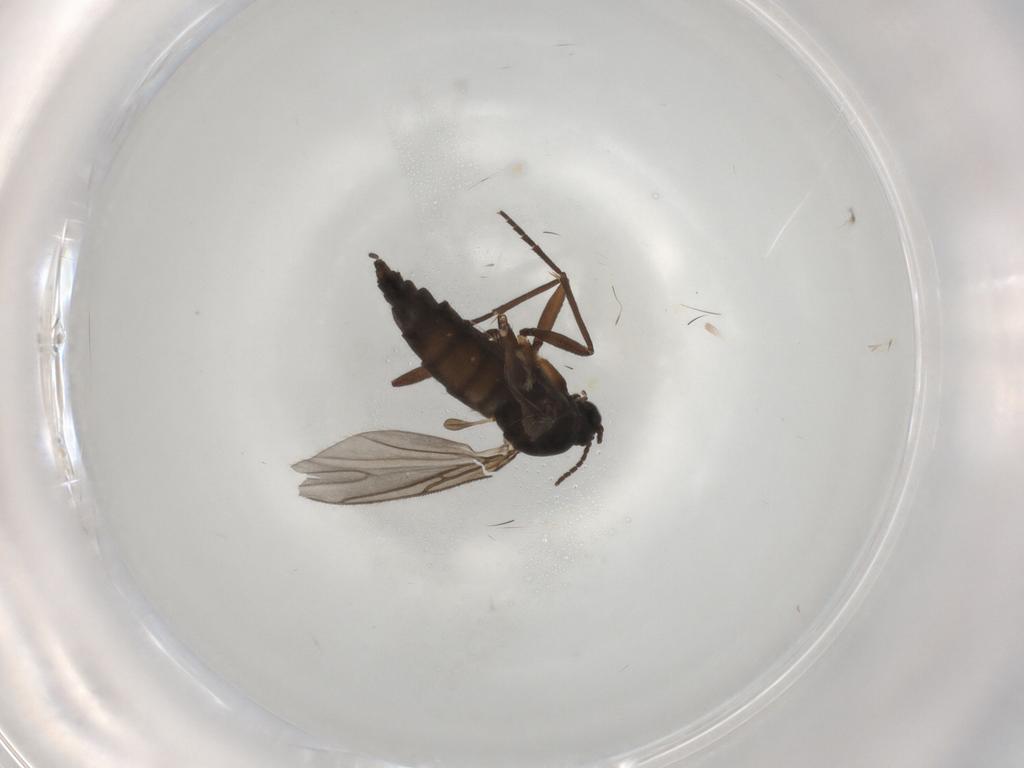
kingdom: Animalia
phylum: Arthropoda
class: Insecta
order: Diptera
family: Sciaridae
